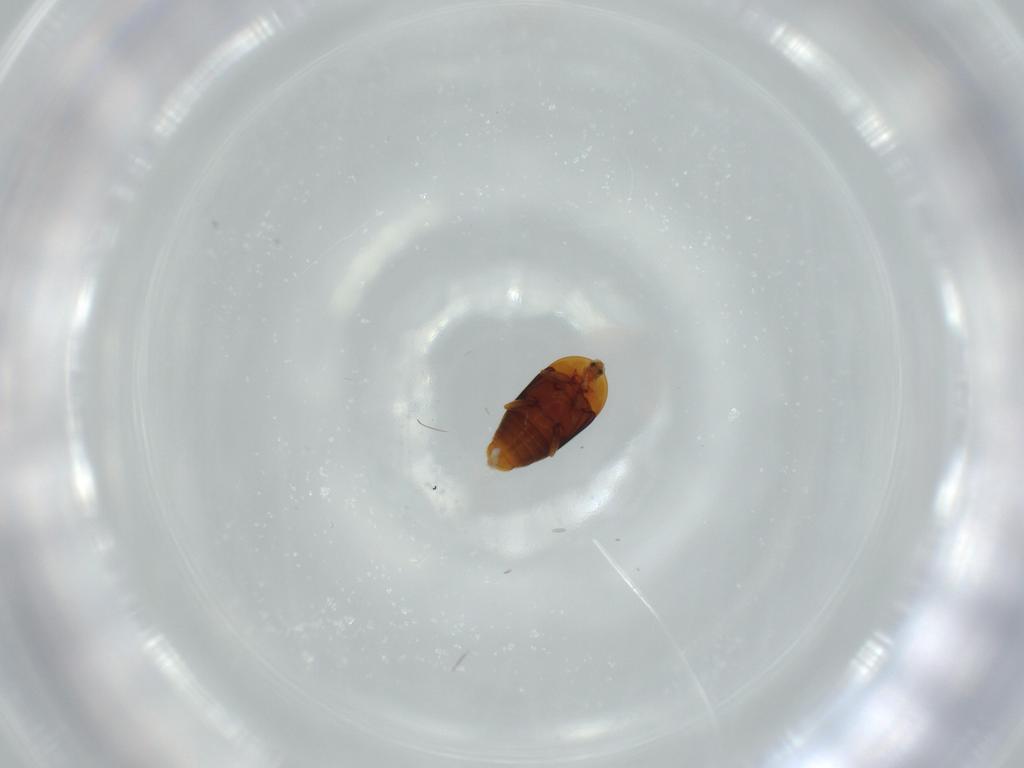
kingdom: Animalia
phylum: Arthropoda
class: Insecta
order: Coleoptera
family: Corylophidae
